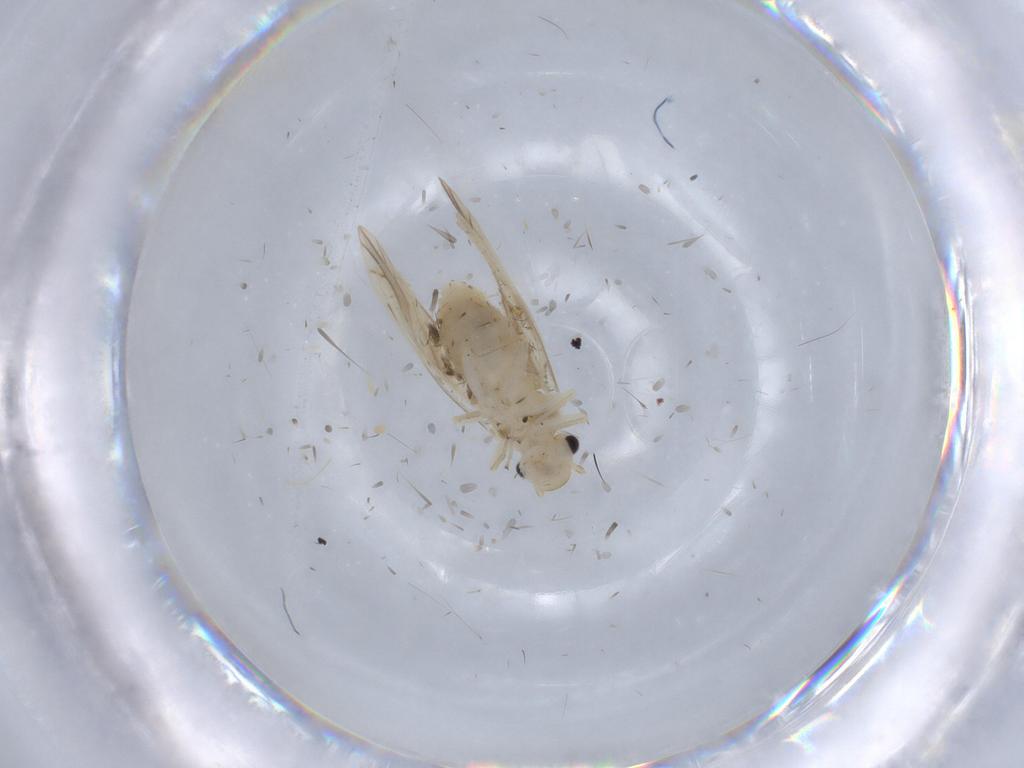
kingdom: Animalia
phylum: Arthropoda
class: Insecta
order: Psocodea
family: Caeciliusidae
